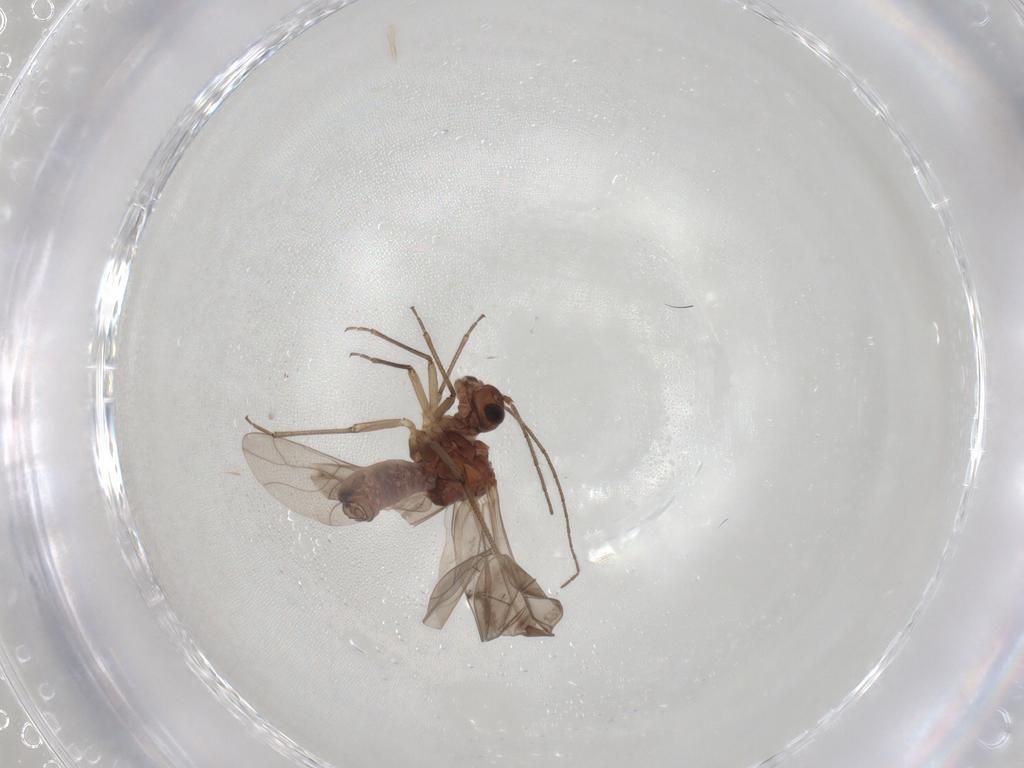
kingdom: Animalia
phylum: Arthropoda
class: Insecta
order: Psocodea
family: Peripsocidae
